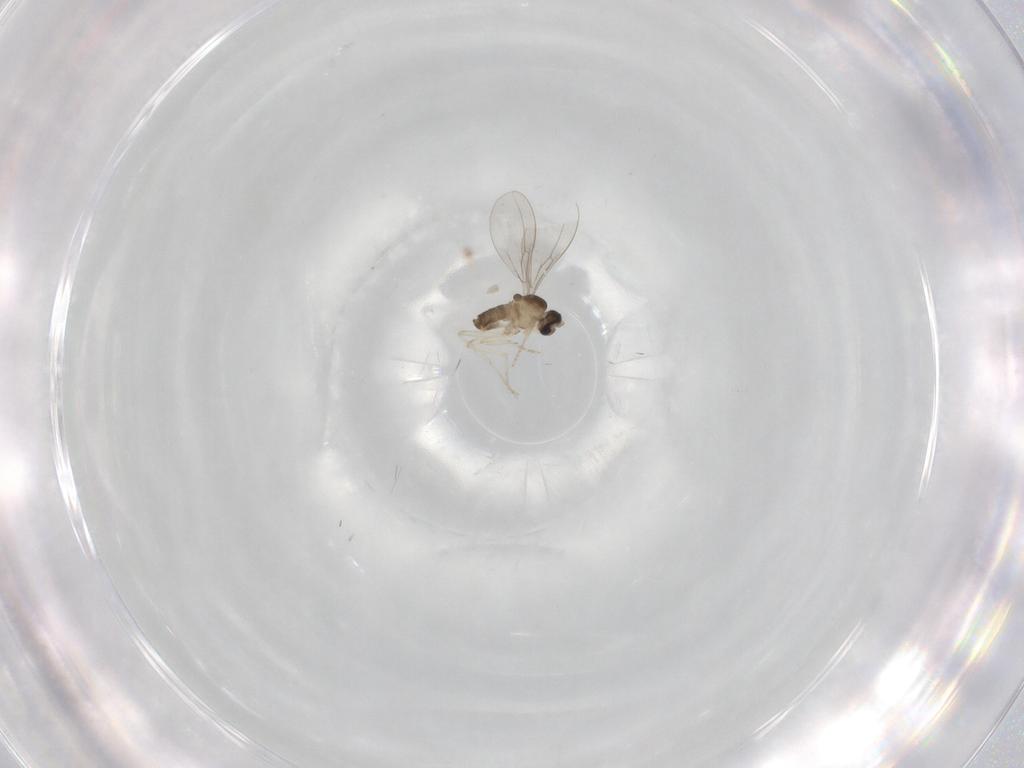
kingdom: Animalia
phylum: Arthropoda
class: Insecta
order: Diptera
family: Cecidomyiidae
